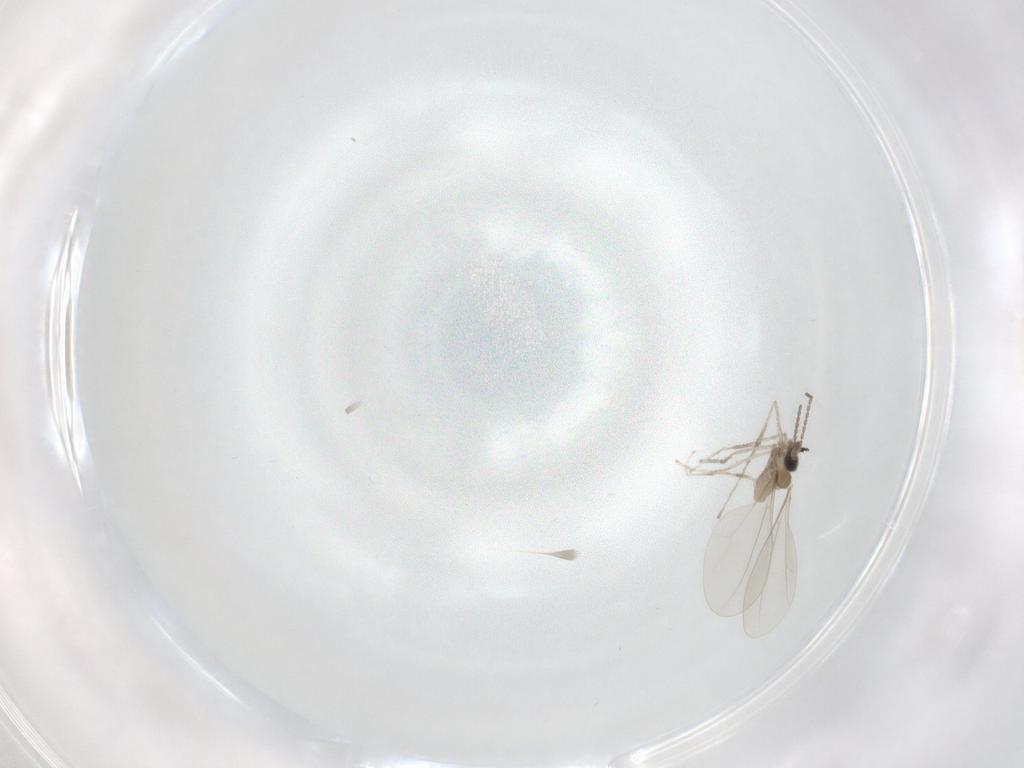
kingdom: Animalia
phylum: Arthropoda
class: Insecta
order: Diptera
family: Cecidomyiidae
